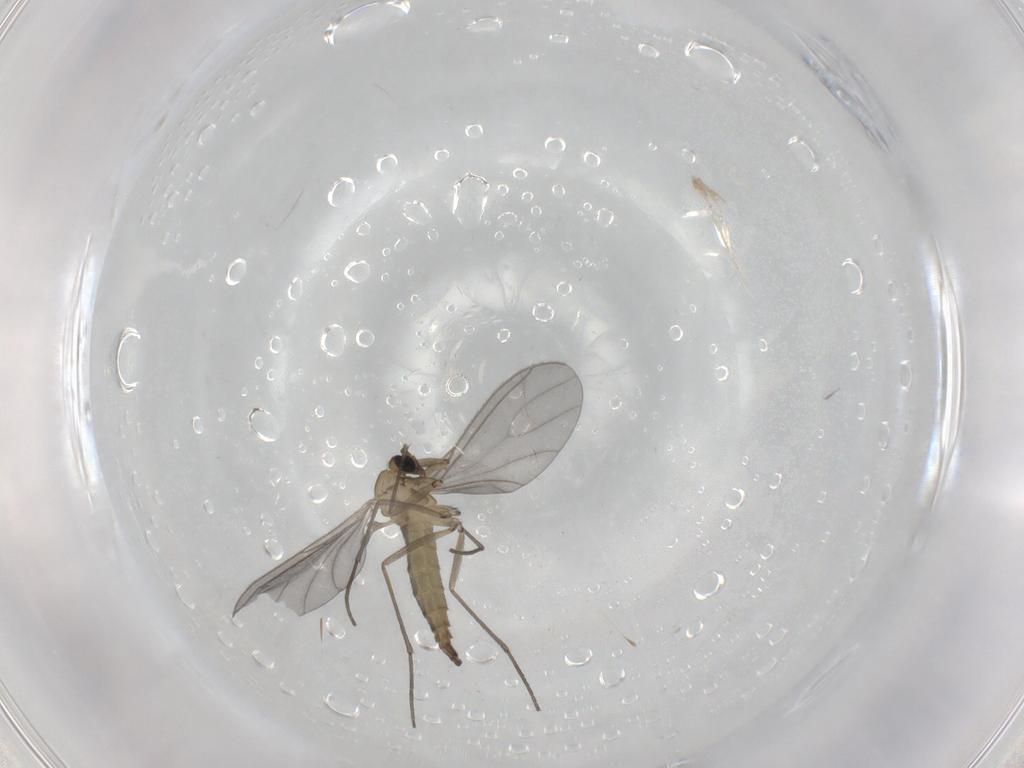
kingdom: Animalia
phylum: Arthropoda
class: Insecta
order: Diptera
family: Sciaridae
